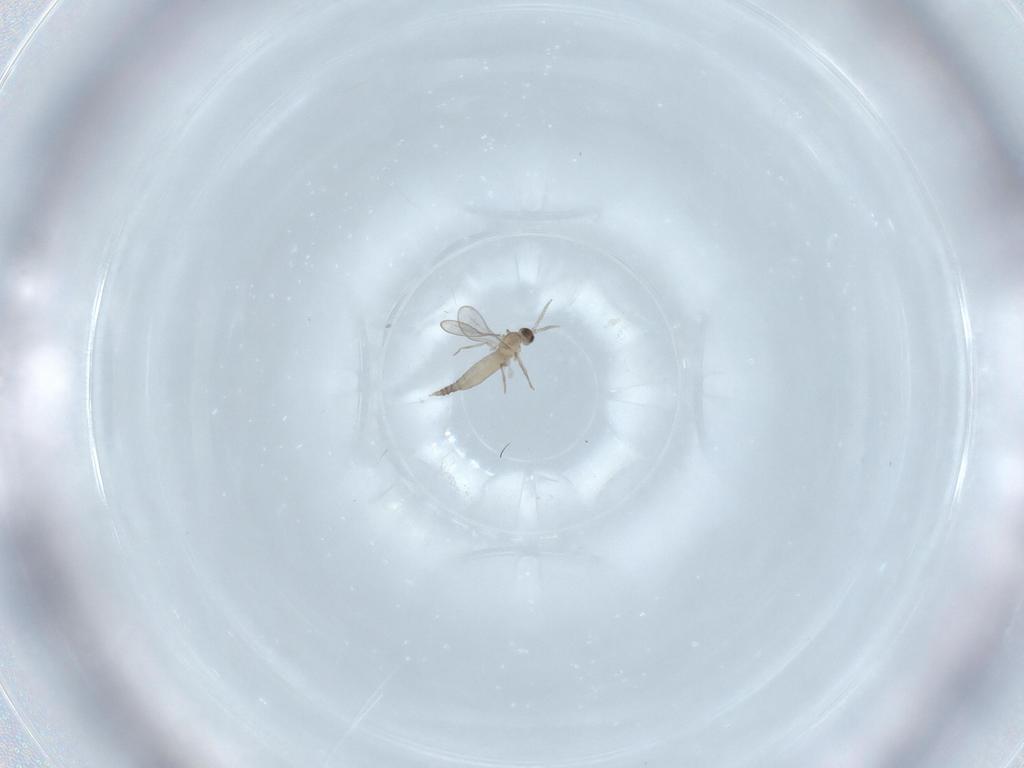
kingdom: Animalia
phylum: Arthropoda
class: Insecta
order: Diptera
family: Cecidomyiidae
